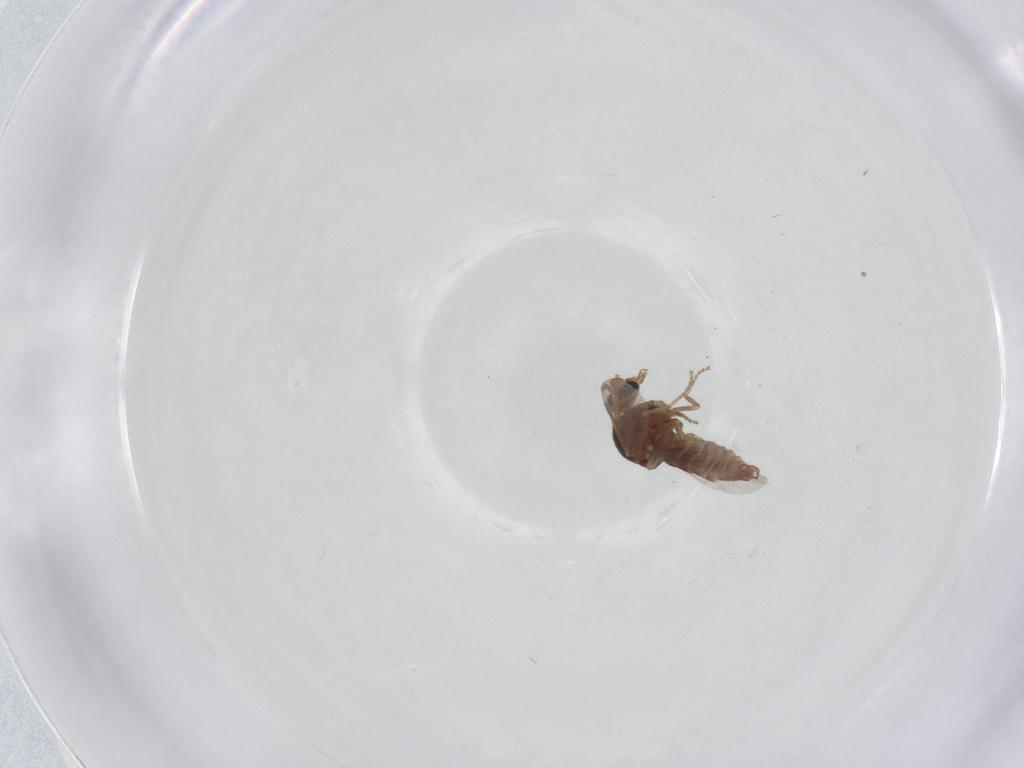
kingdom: Animalia
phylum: Arthropoda
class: Insecta
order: Diptera
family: Ceratopogonidae
